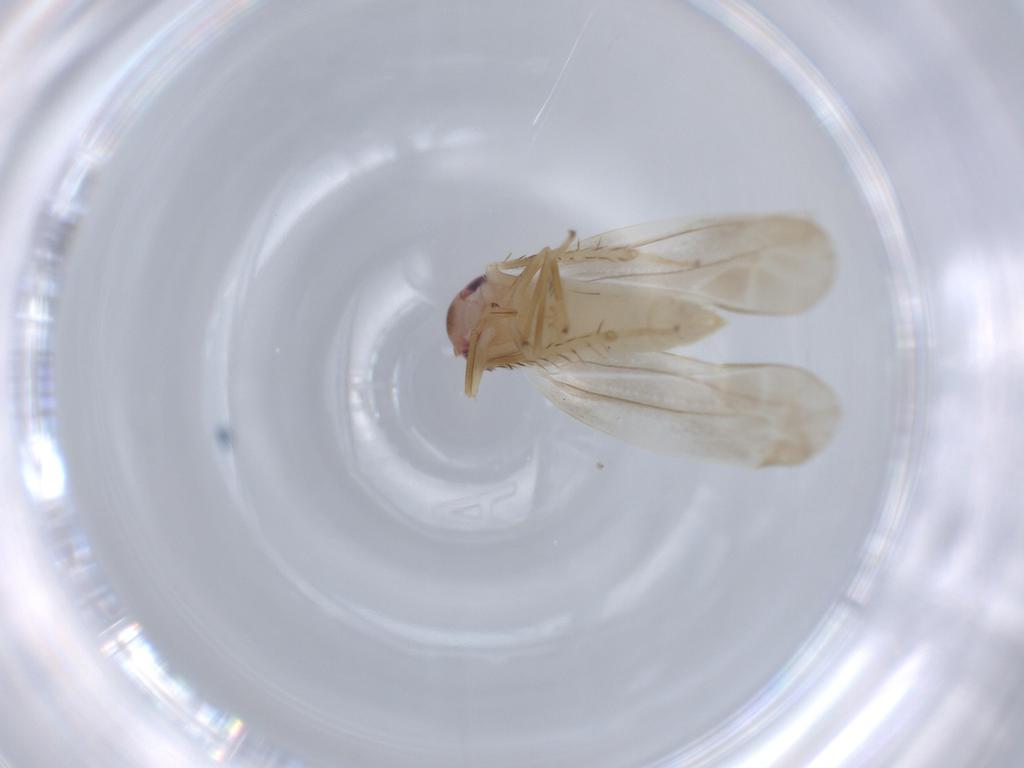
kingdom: Animalia
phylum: Arthropoda
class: Insecta
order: Hemiptera
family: Cicadellidae
